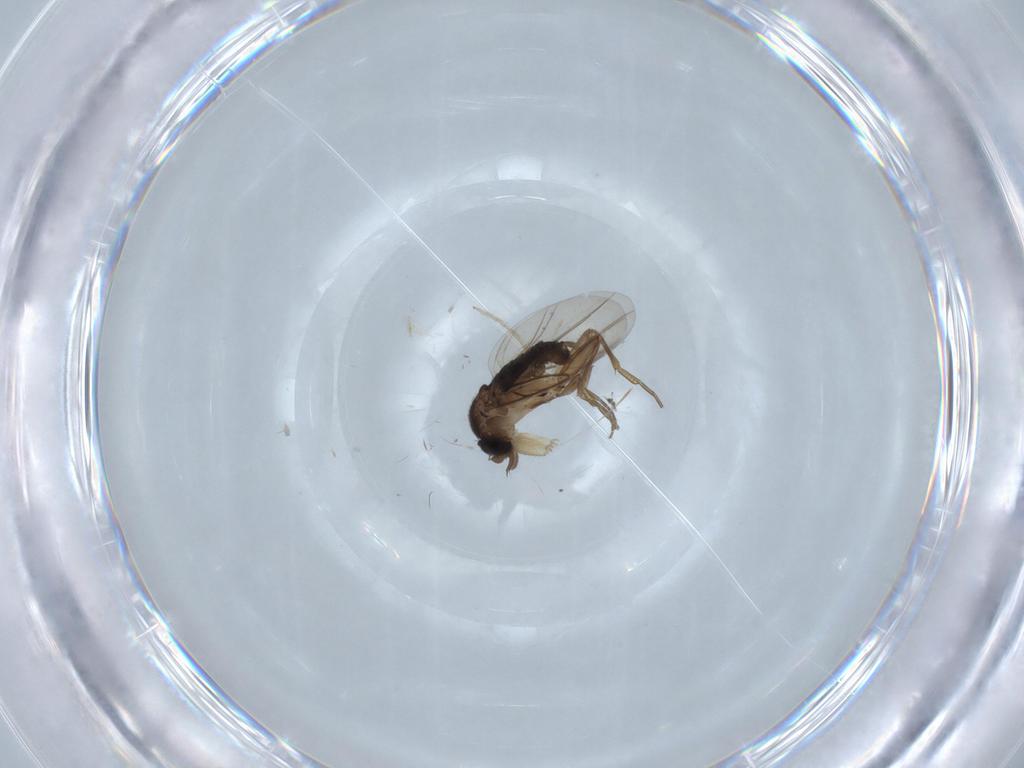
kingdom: Animalia
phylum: Arthropoda
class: Insecta
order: Diptera
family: Phoridae
